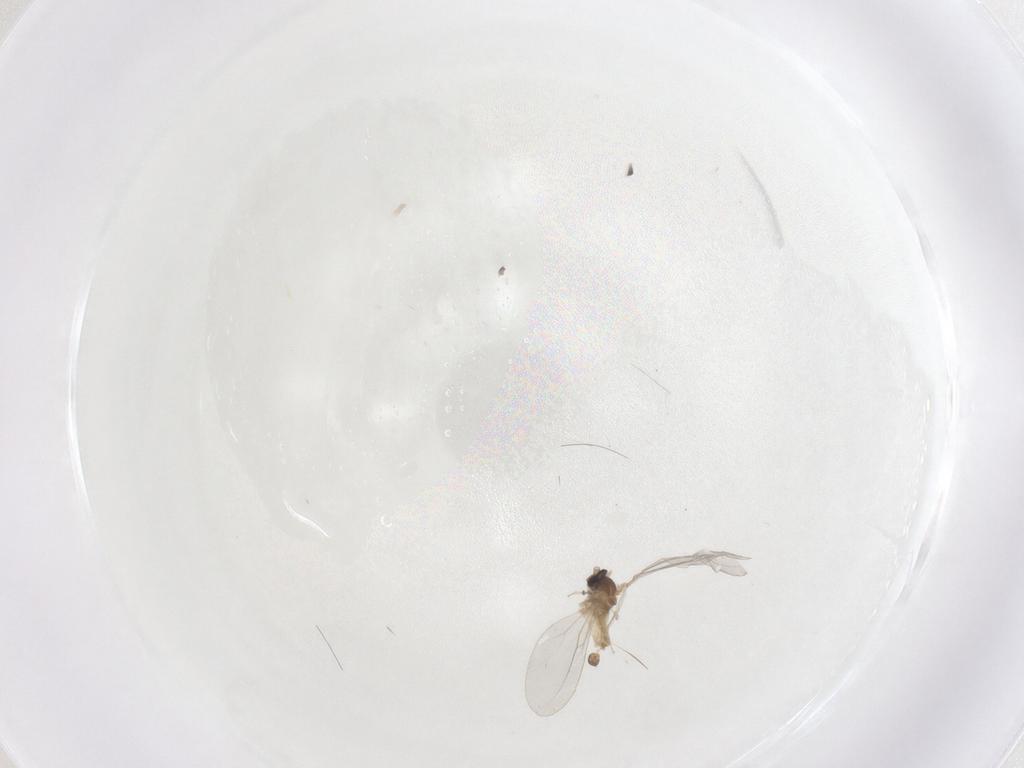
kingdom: Animalia
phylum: Arthropoda
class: Insecta
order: Diptera
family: Cecidomyiidae
